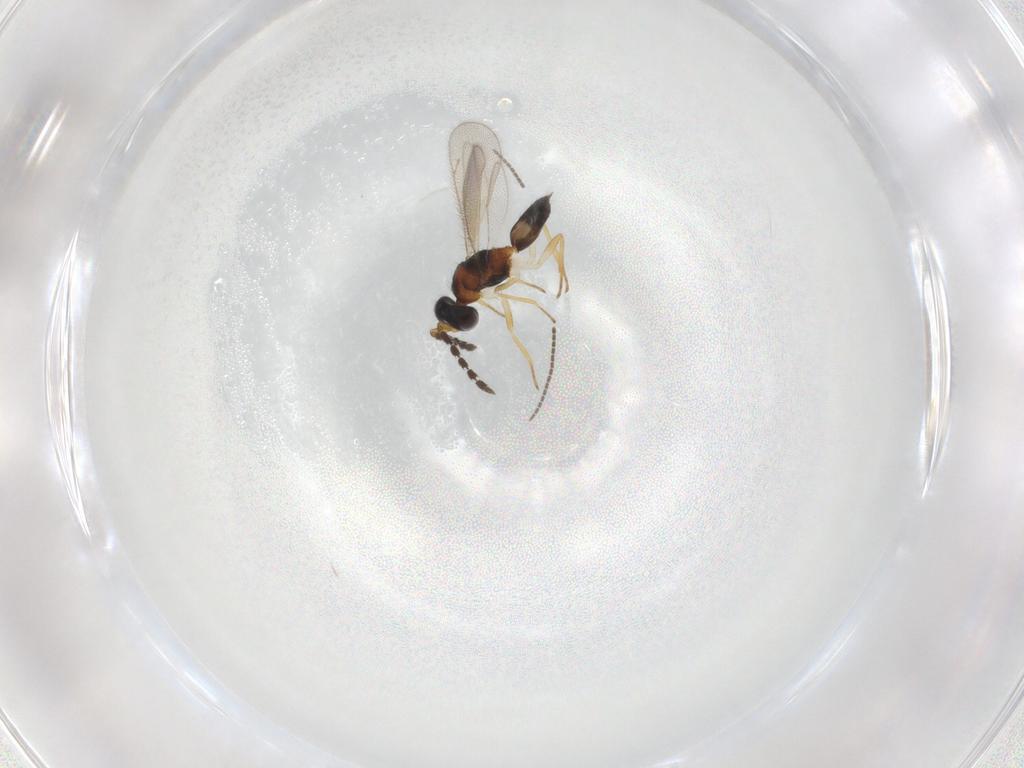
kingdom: Animalia
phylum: Arthropoda
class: Insecta
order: Hymenoptera
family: Eulophidae
